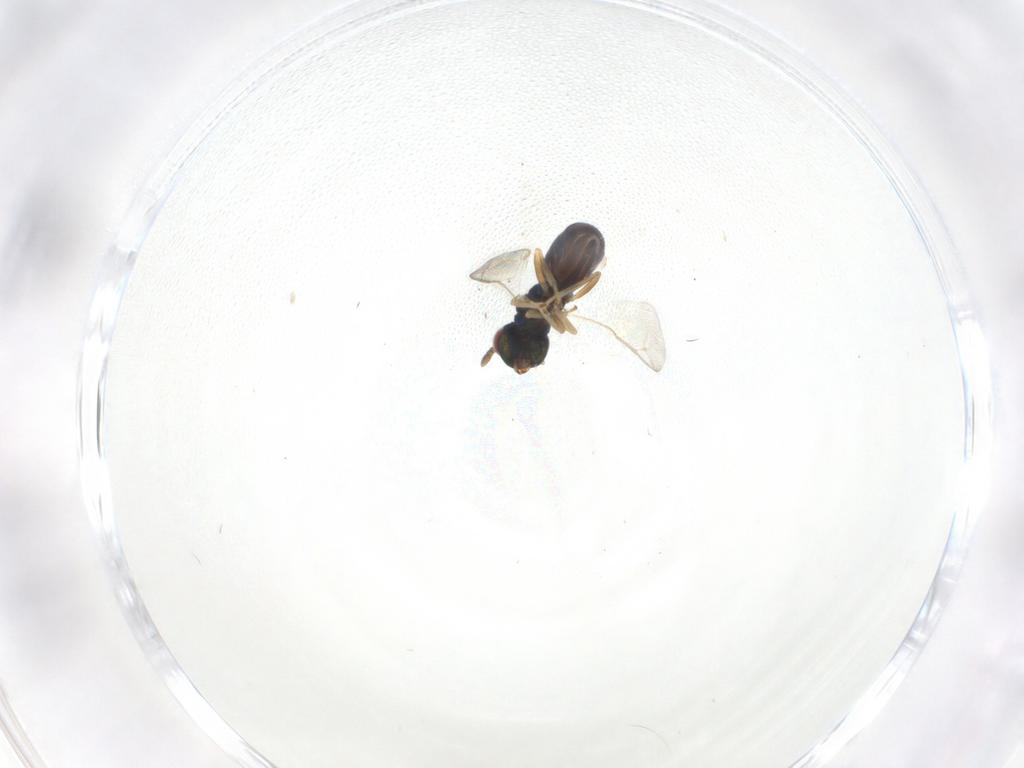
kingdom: Animalia
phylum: Arthropoda
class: Insecta
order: Hymenoptera
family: Pteromalidae
